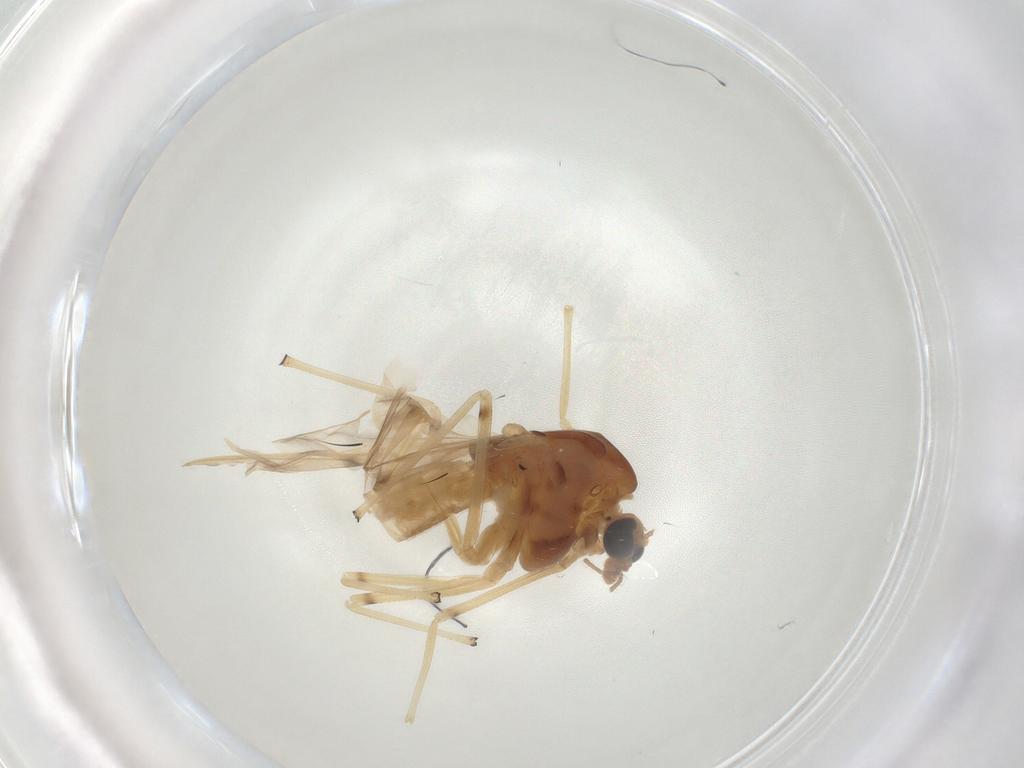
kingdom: Animalia
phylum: Arthropoda
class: Insecta
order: Diptera
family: Chironomidae
